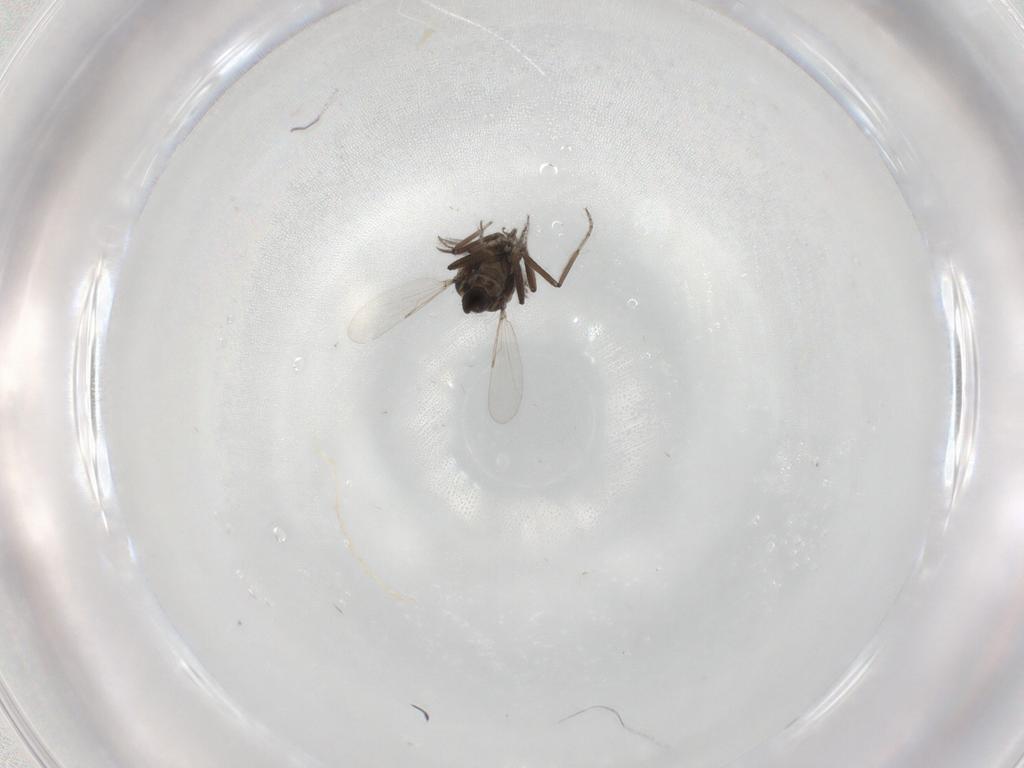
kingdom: Animalia
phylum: Arthropoda
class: Insecta
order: Diptera
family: Ceratopogonidae
